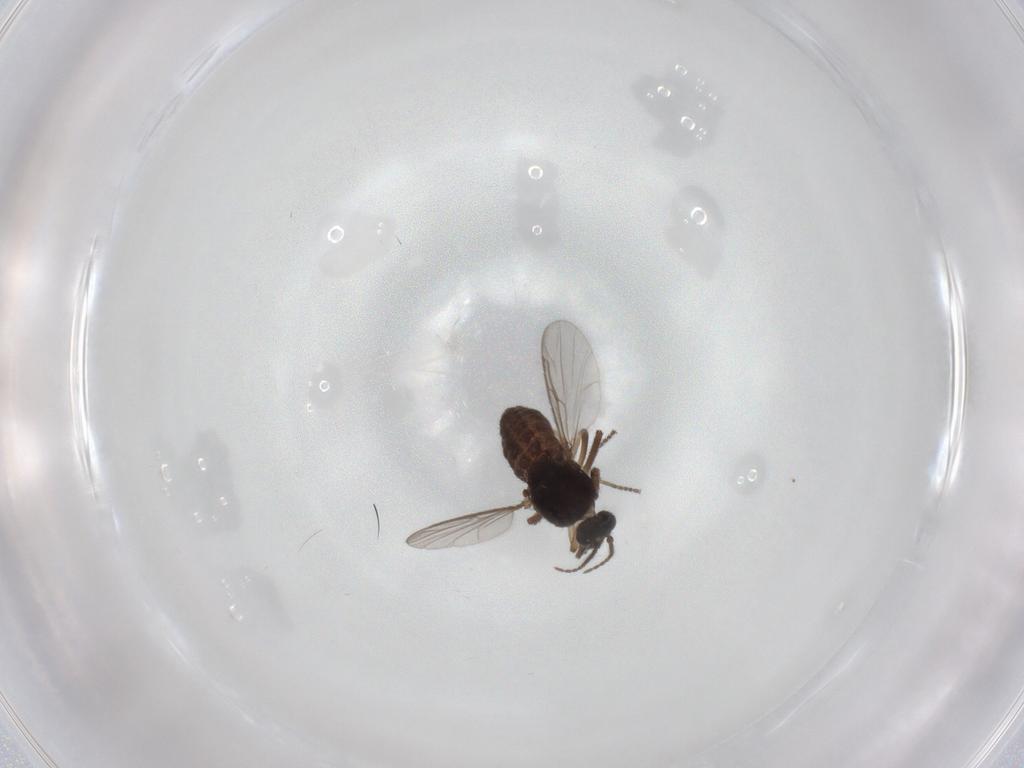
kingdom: Animalia
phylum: Arthropoda
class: Insecta
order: Diptera
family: Ceratopogonidae
